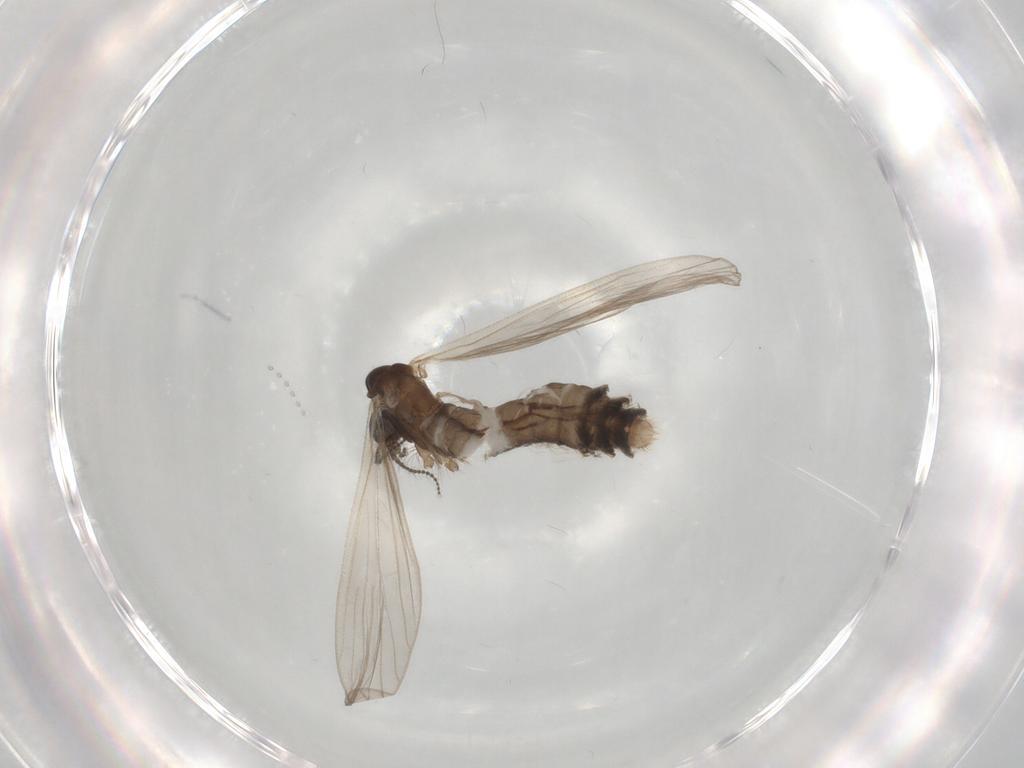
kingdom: Animalia
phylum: Arthropoda
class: Insecta
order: Diptera
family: Limoniidae
